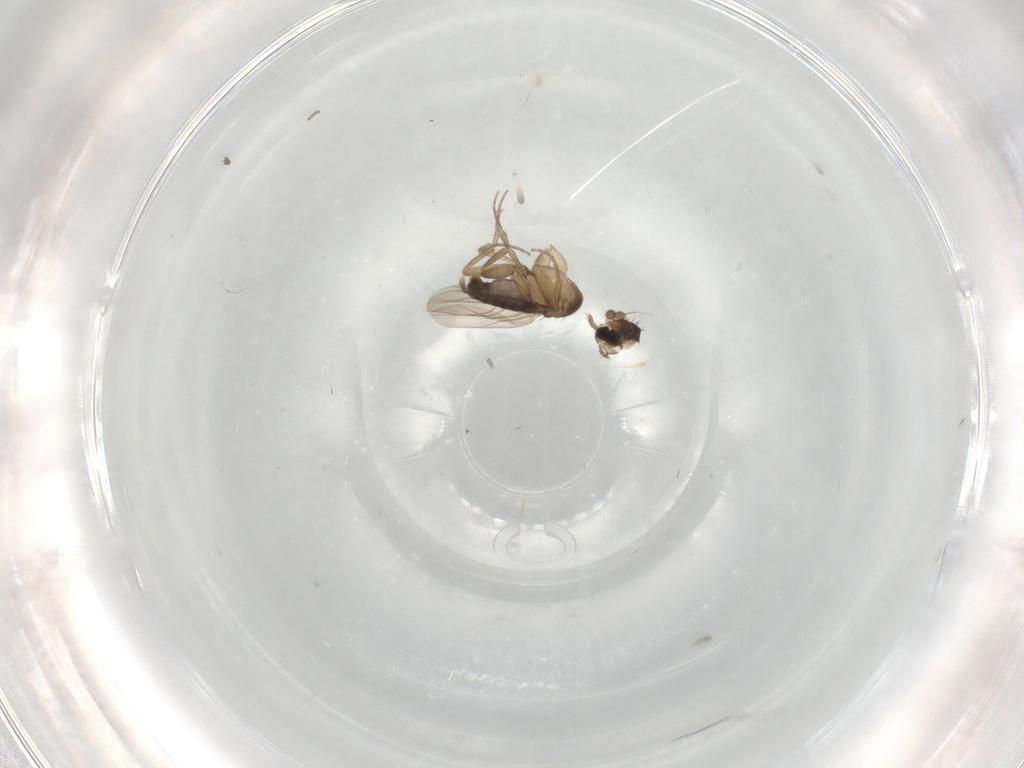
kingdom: Animalia
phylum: Arthropoda
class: Insecta
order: Diptera
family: Phoridae
